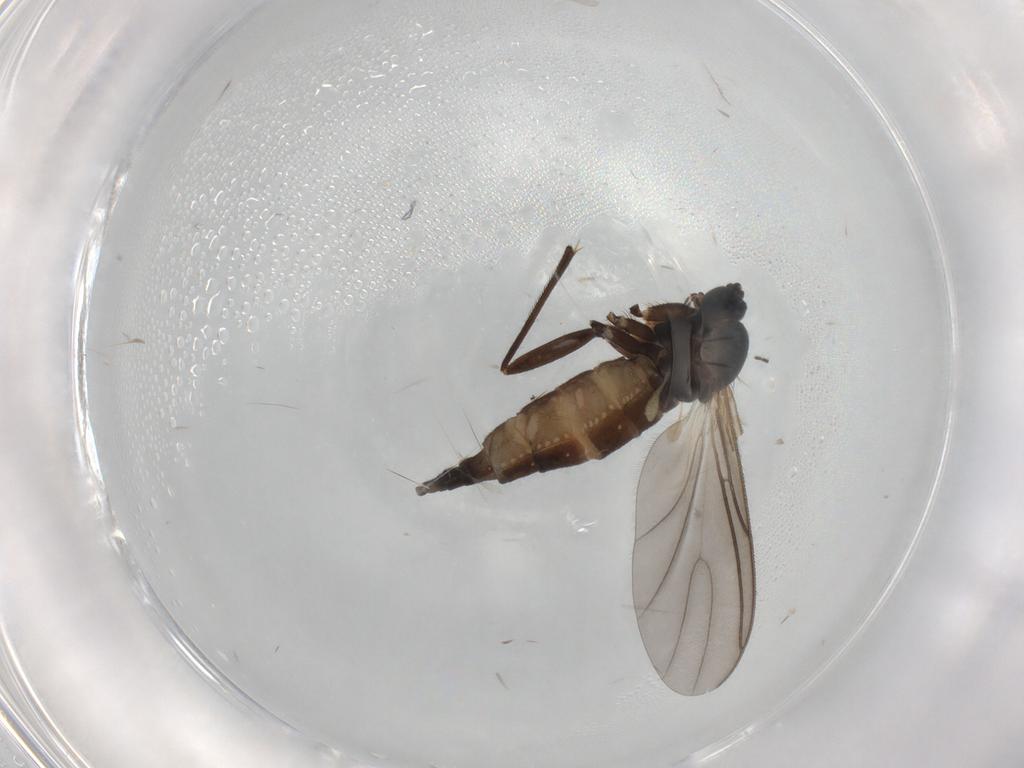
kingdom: Animalia
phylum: Arthropoda
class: Insecta
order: Diptera
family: Sciaridae
